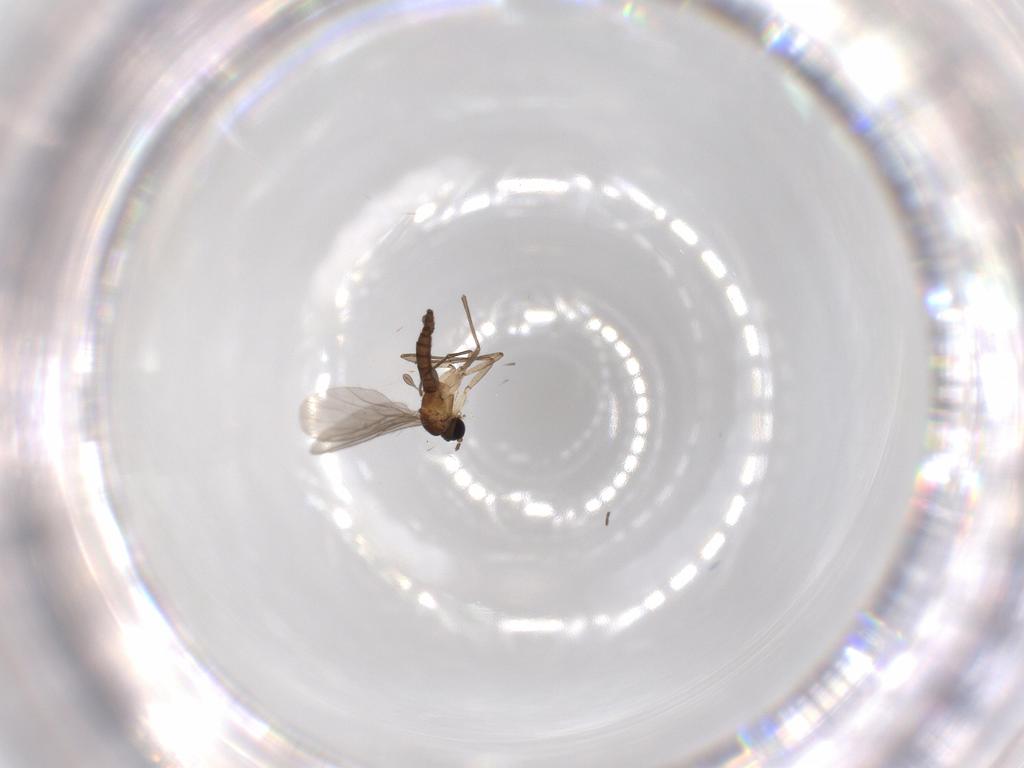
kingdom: Animalia
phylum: Arthropoda
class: Insecta
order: Diptera
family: Sciaridae
